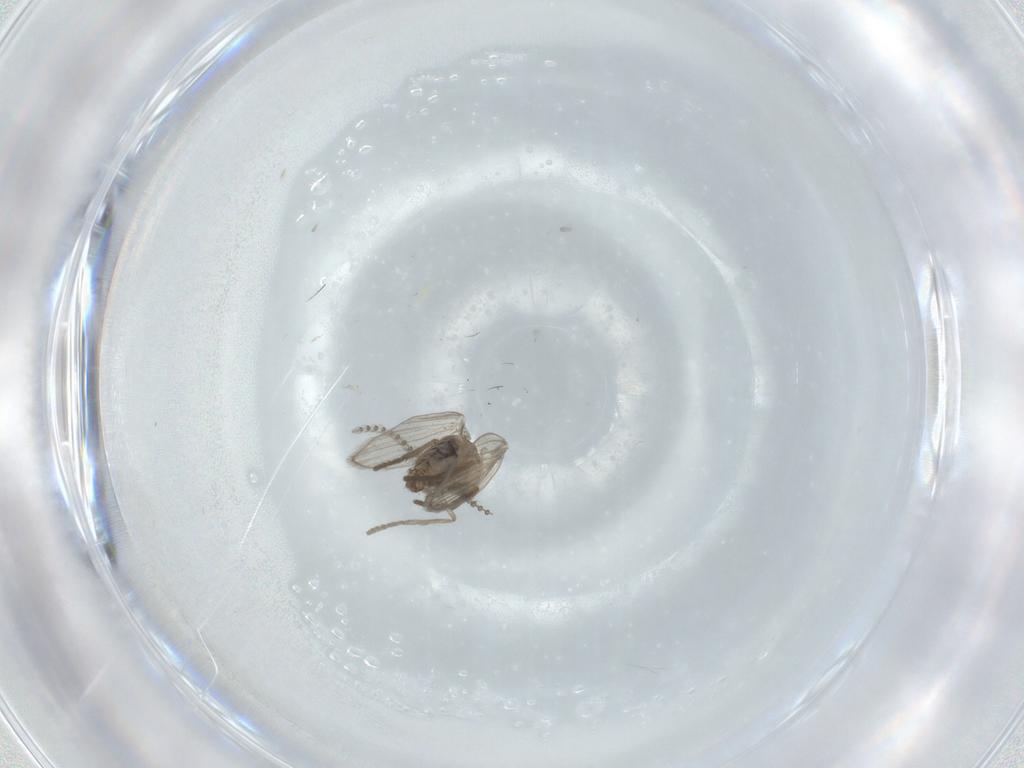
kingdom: Animalia
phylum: Arthropoda
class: Insecta
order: Diptera
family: Psychodidae
